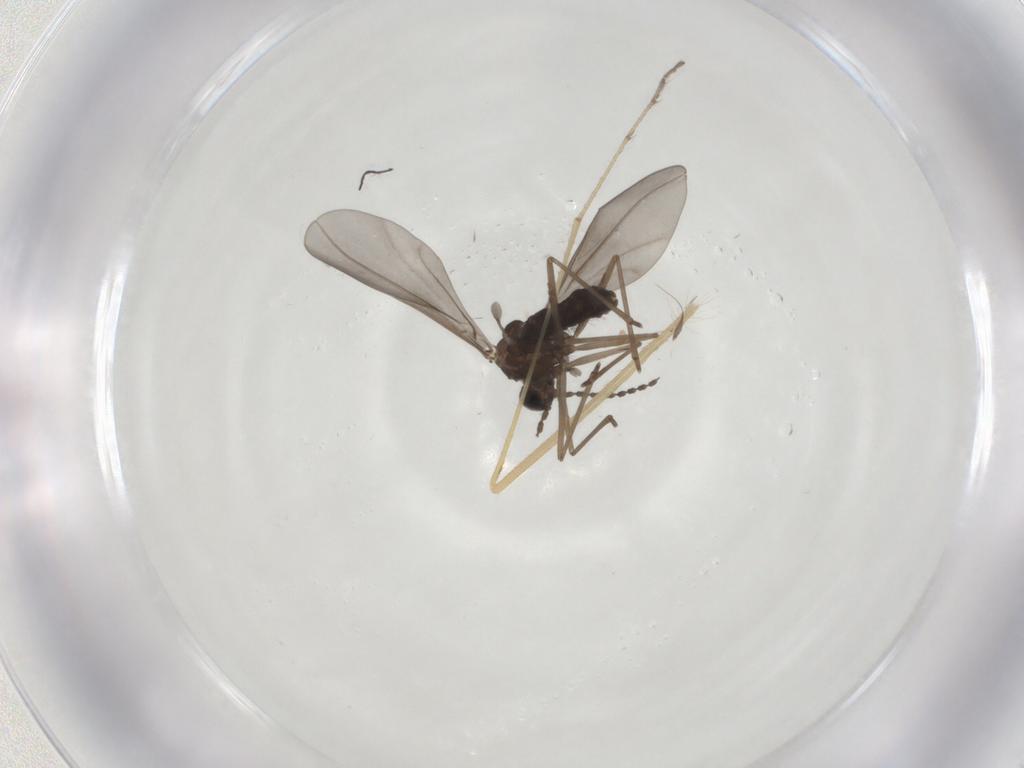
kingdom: Animalia
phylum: Arthropoda
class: Insecta
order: Diptera
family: Cecidomyiidae
